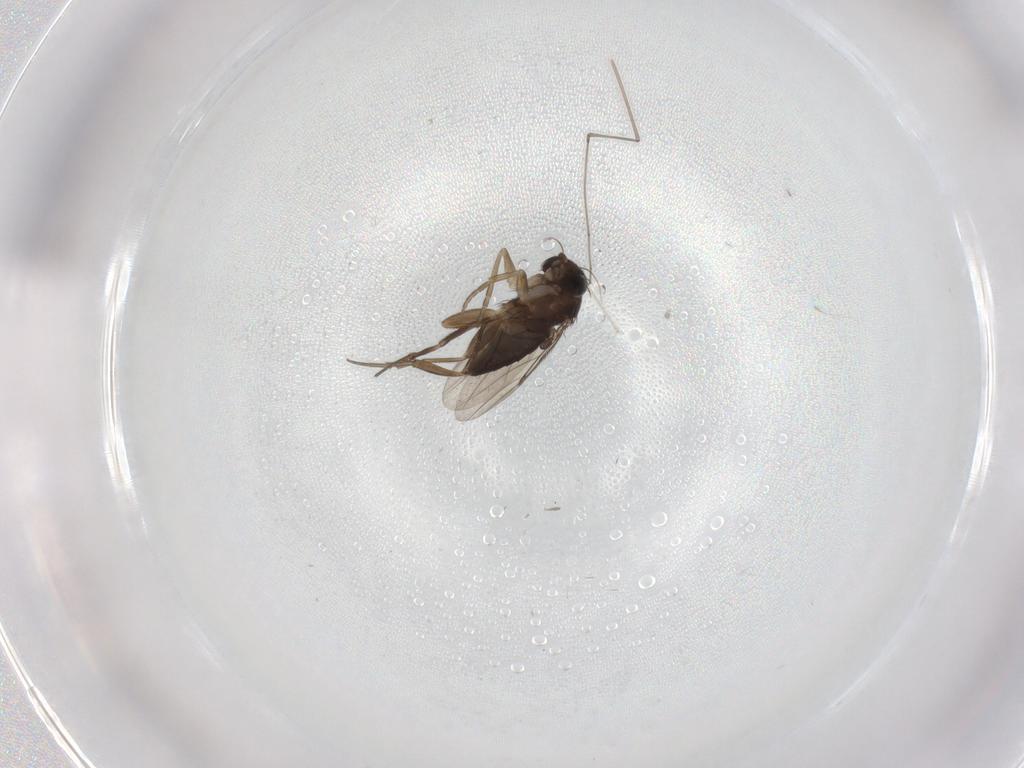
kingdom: Animalia
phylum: Arthropoda
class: Insecta
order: Diptera
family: Phoridae
